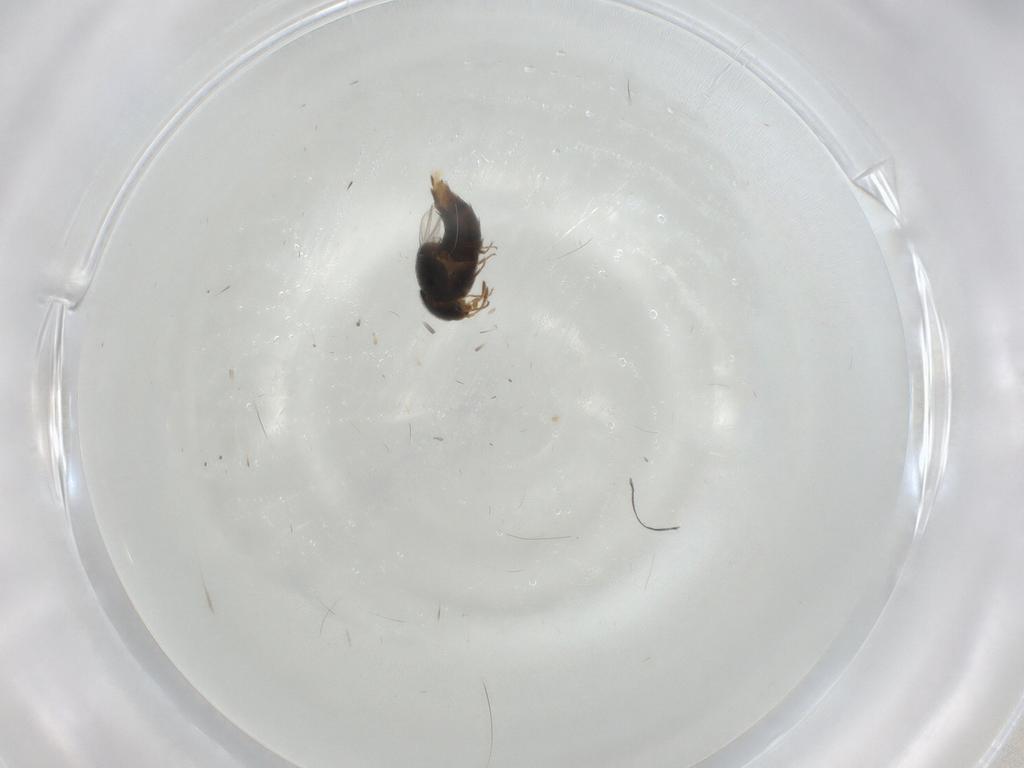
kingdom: Animalia
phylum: Arthropoda
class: Insecta
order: Coleoptera
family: Staphylinidae
